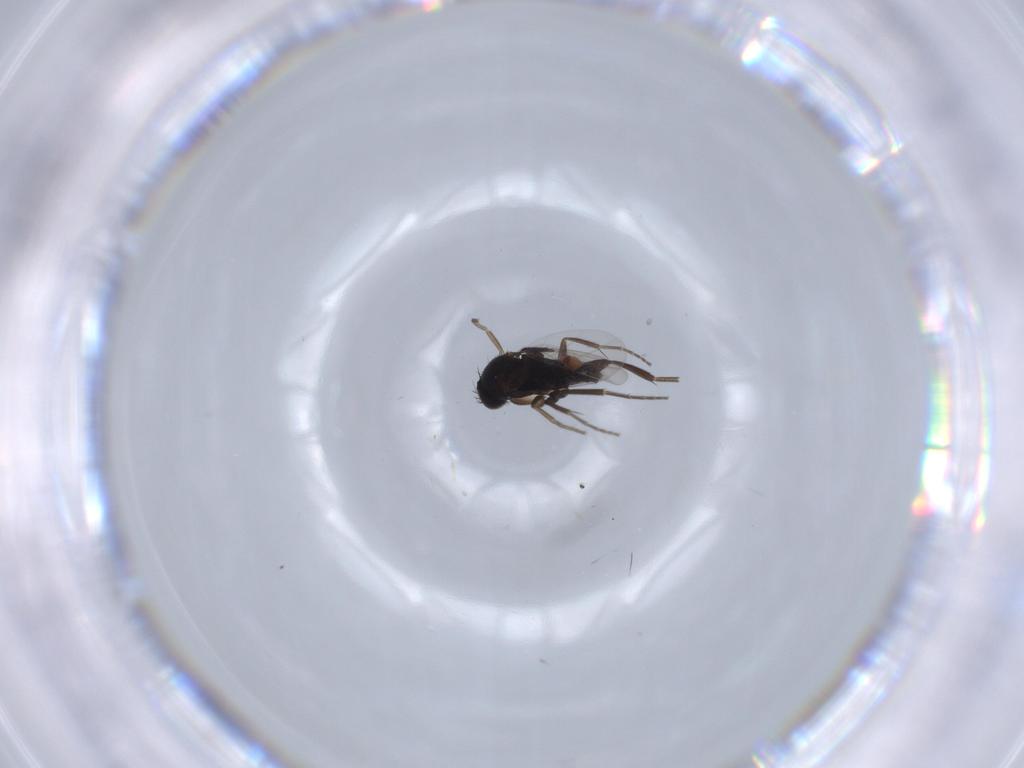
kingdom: Animalia
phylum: Arthropoda
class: Insecta
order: Diptera
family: Phoridae
